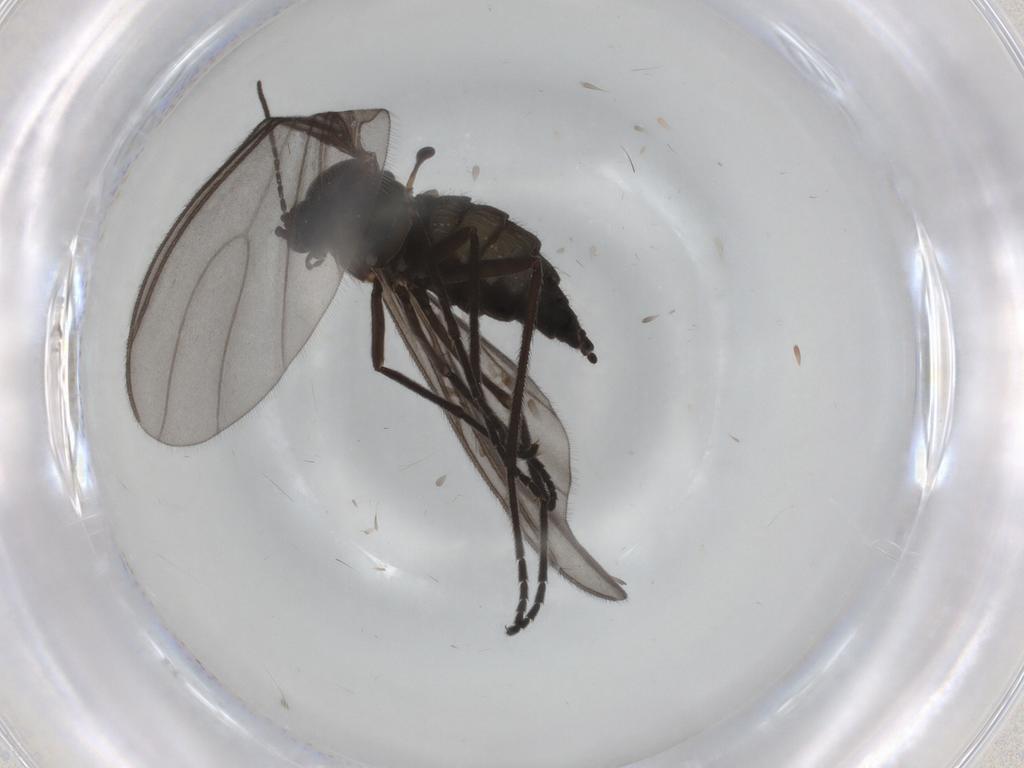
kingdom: Animalia
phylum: Arthropoda
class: Insecta
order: Diptera
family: Sciaridae
